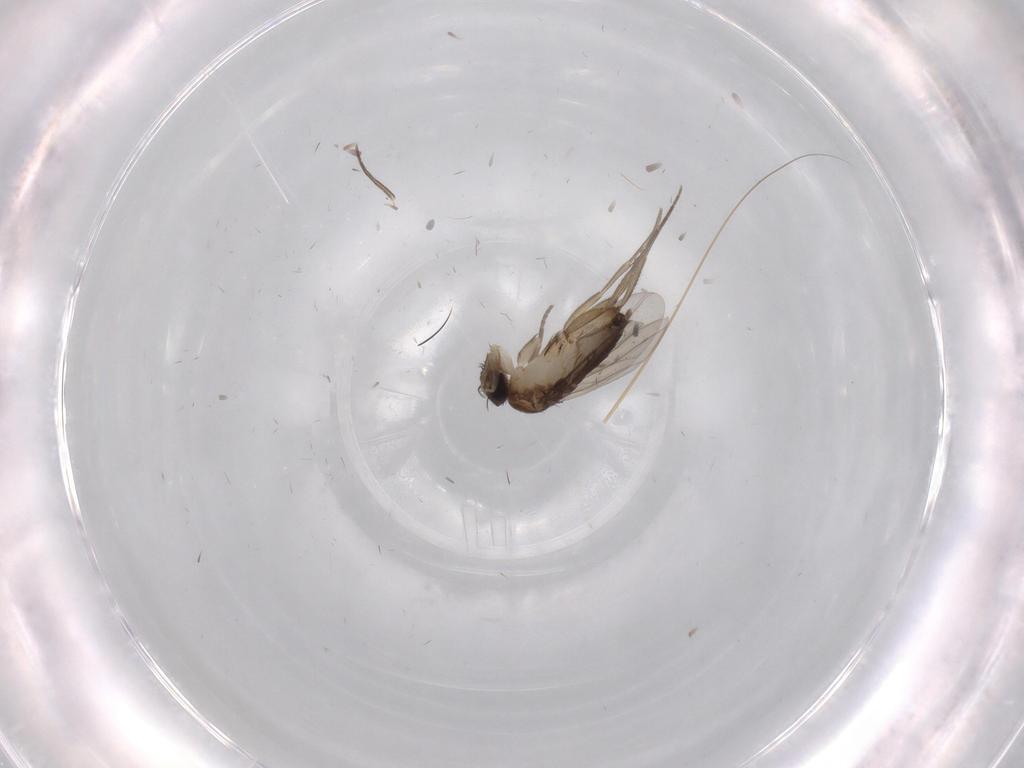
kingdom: Animalia
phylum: Arthropoda
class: Insecta
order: Diptera
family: Phoridae
